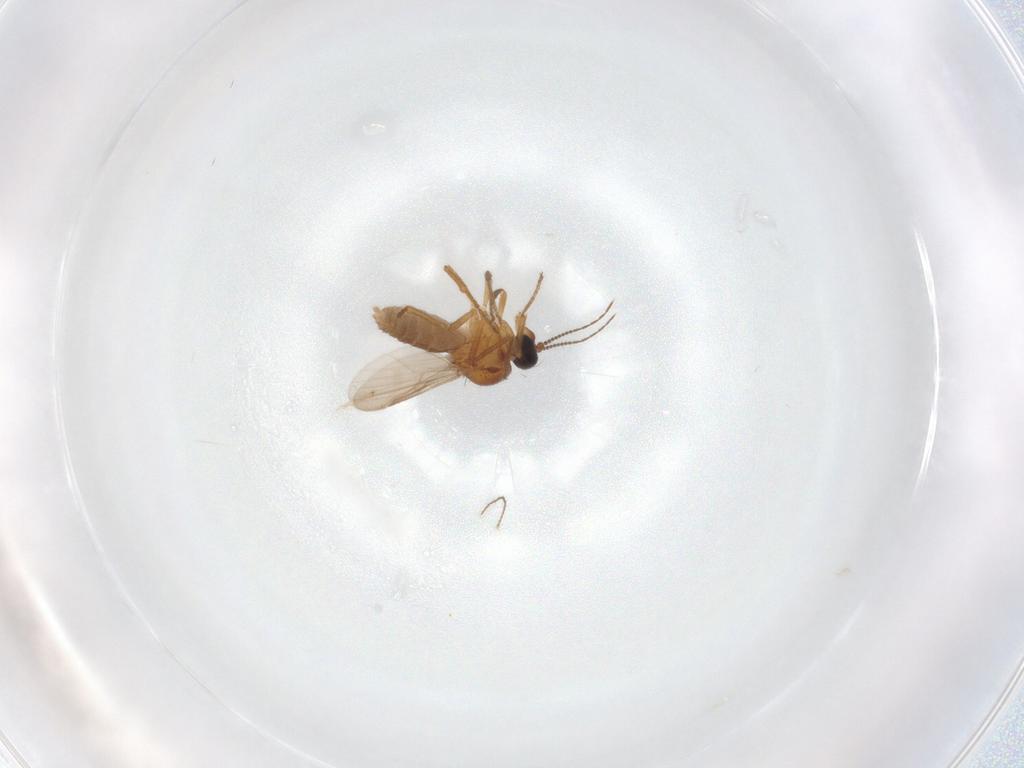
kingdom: Animalia
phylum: Arthropoda
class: Insecta
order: Diptera
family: Ceratopogonidae
